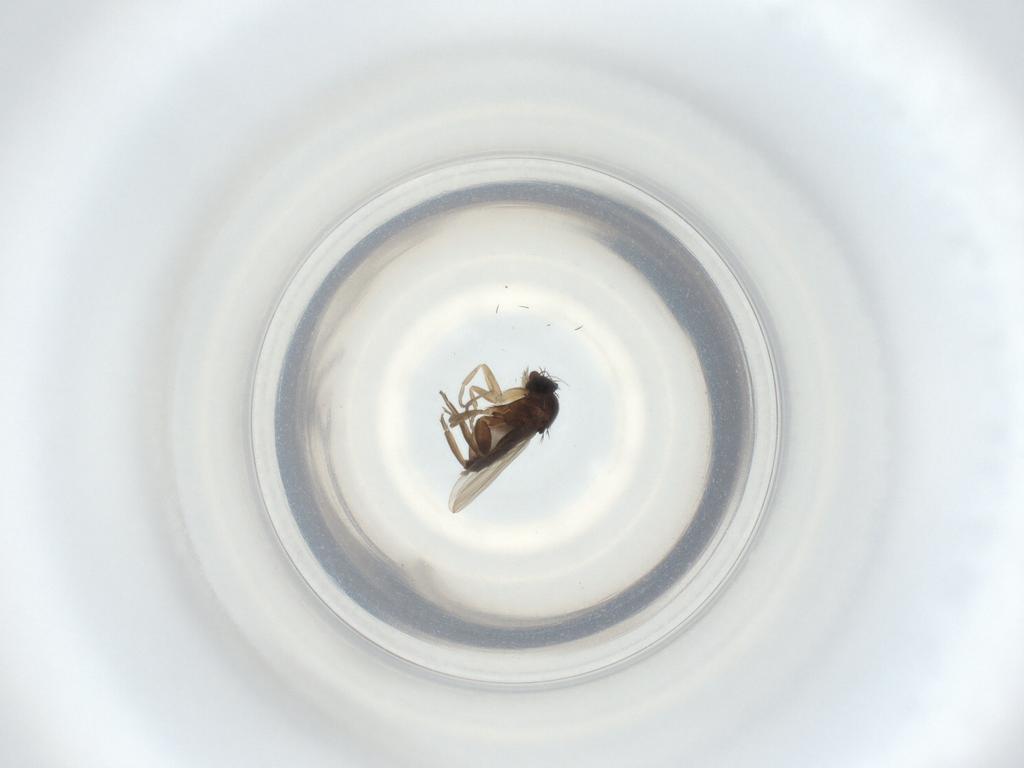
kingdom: Animalia
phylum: Arthropoda
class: Insecta
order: Diptera
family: Phoridae
